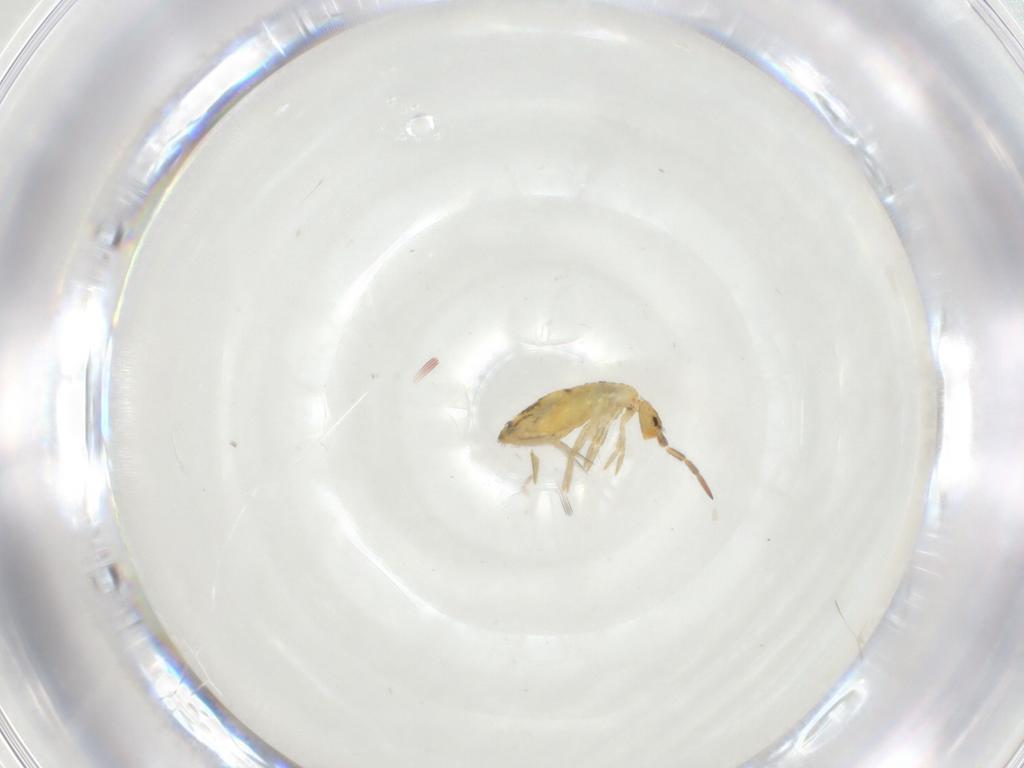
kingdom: Animalia
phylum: Arthropoda
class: Collembola
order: Entomobryomorpha
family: Entomobryidae
